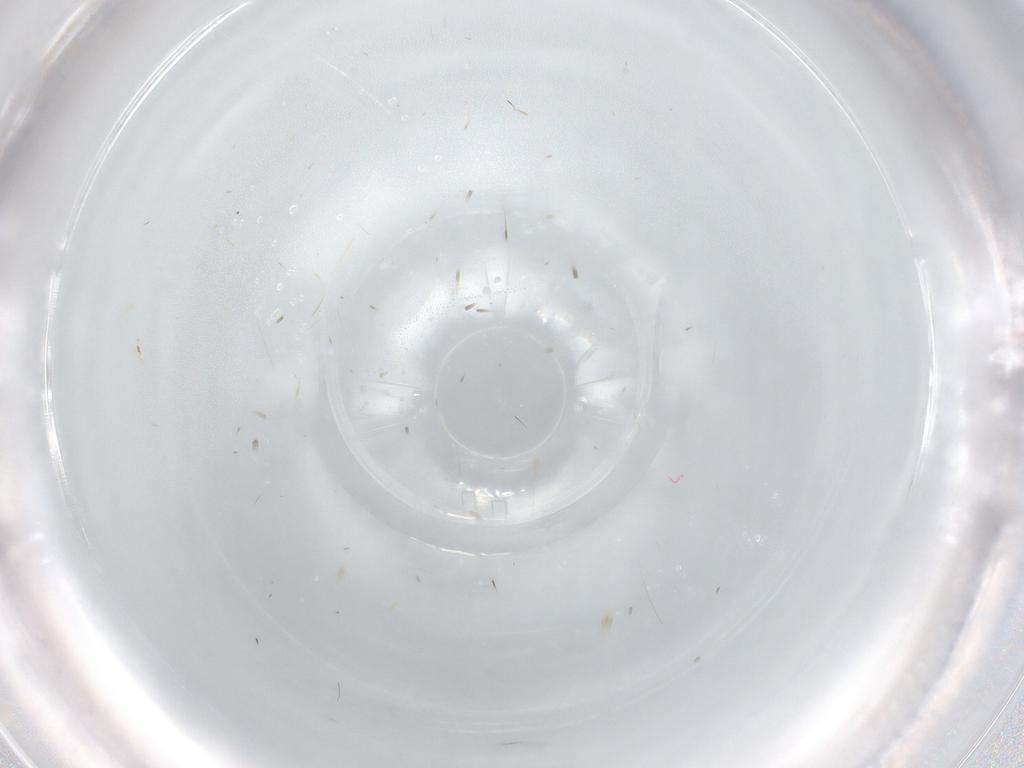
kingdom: Animalia
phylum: Arthropoda
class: Insecta
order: Diptera
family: Cecidomyiidae
